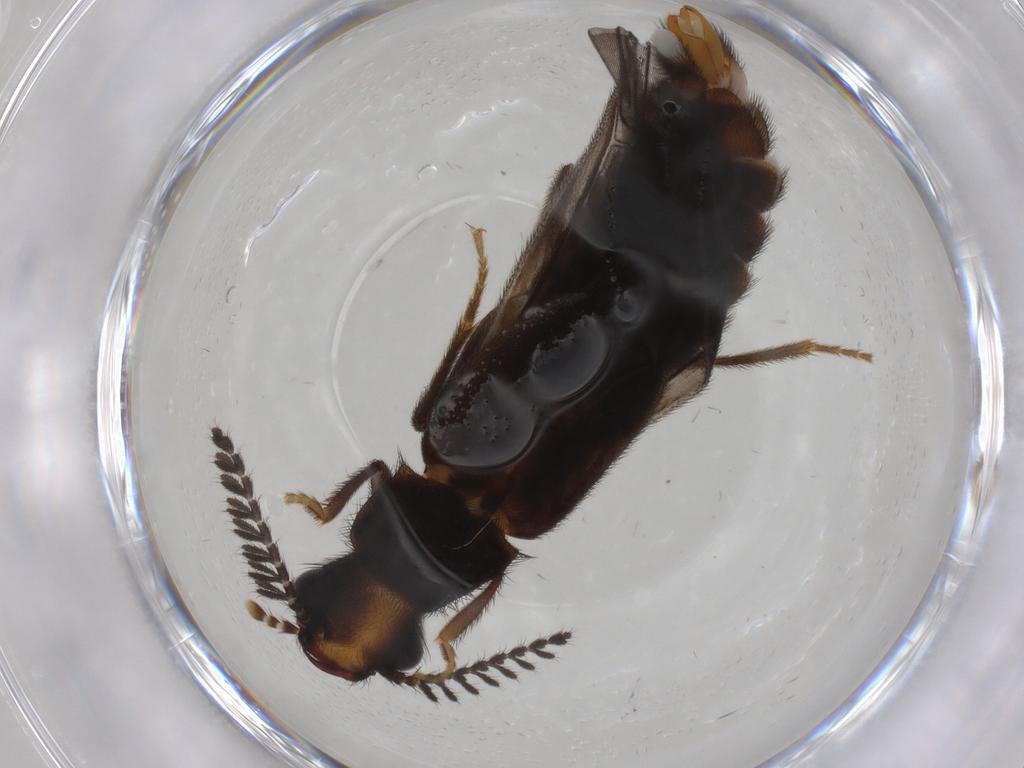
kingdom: Animalia
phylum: Arthropoda
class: Insecta
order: Coleoptera
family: Phengodidae
